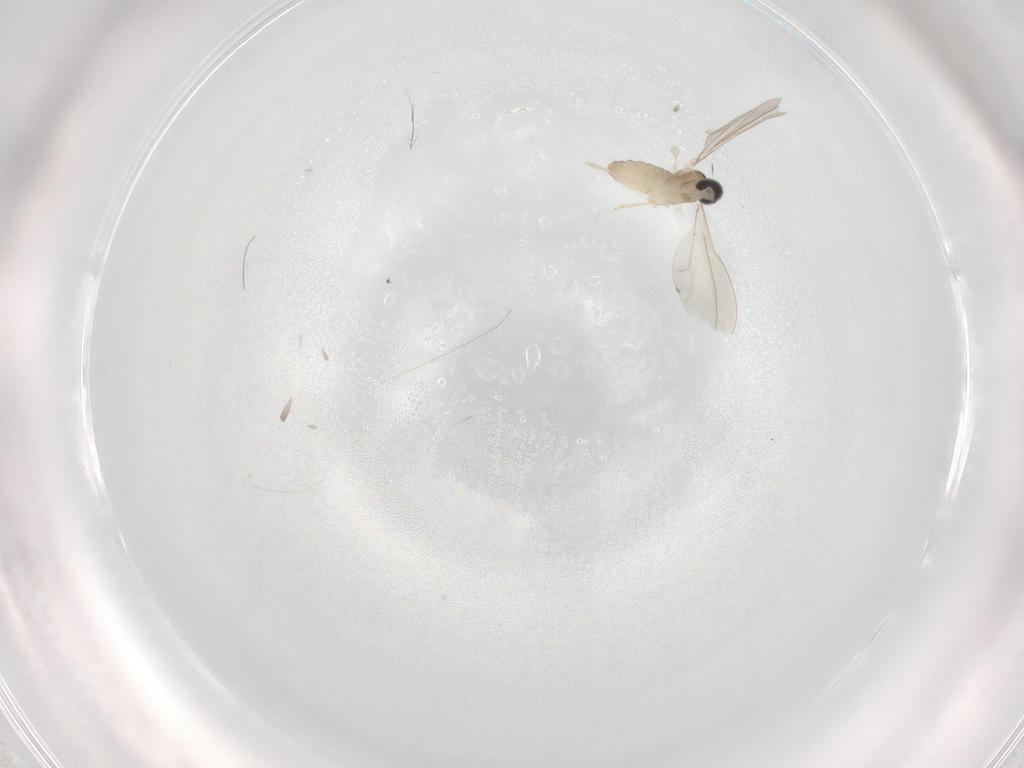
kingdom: Animalia
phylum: Arthropoda
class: Insecta
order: Diptera
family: Cecidomyiidae
